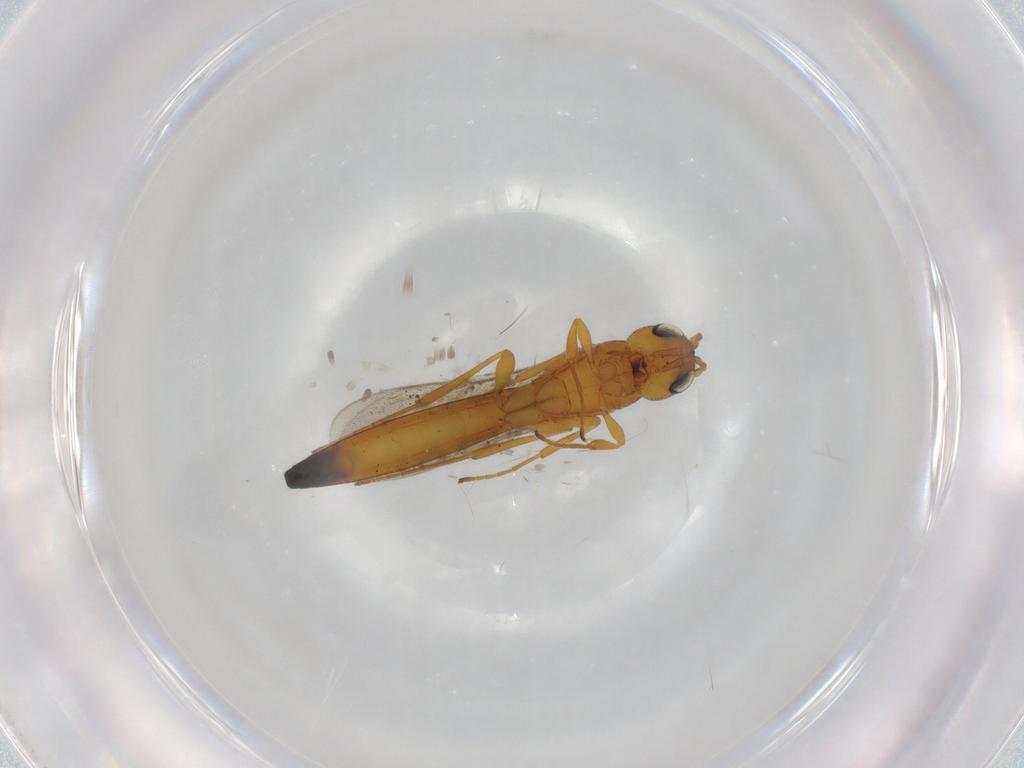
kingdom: Animalia
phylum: Arthropoda
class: Insecta
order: Hymenoptera
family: Braconidae
